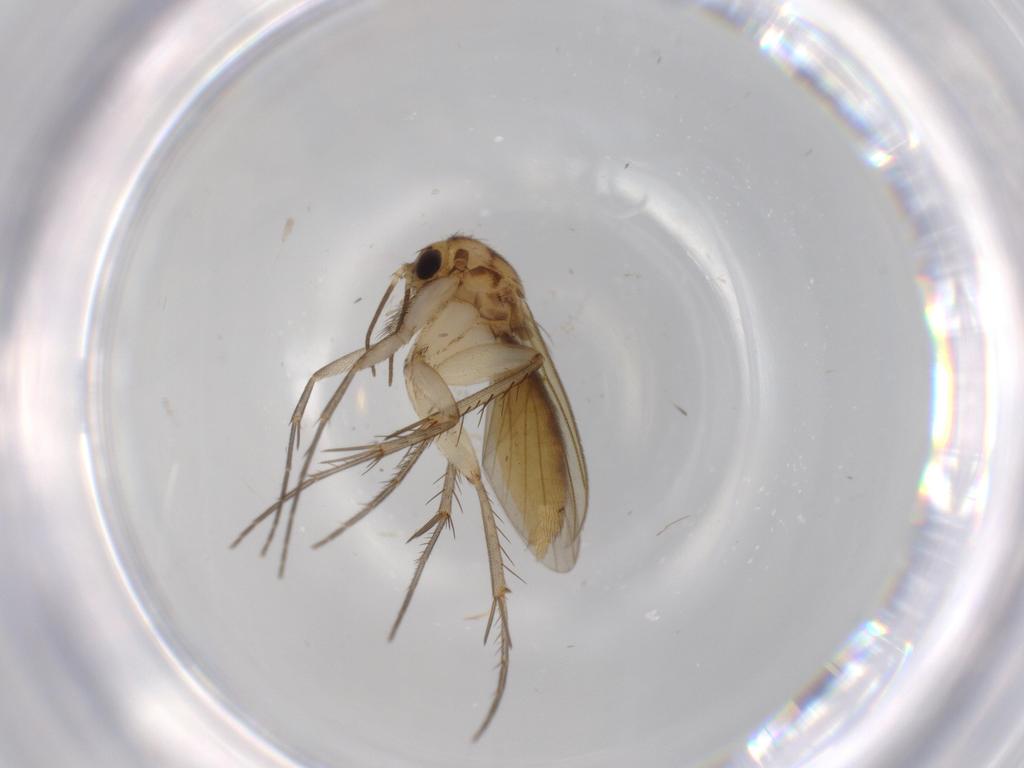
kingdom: Animalia
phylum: Arthropoda
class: Insecta
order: Diptera
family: Mycetophilidae
